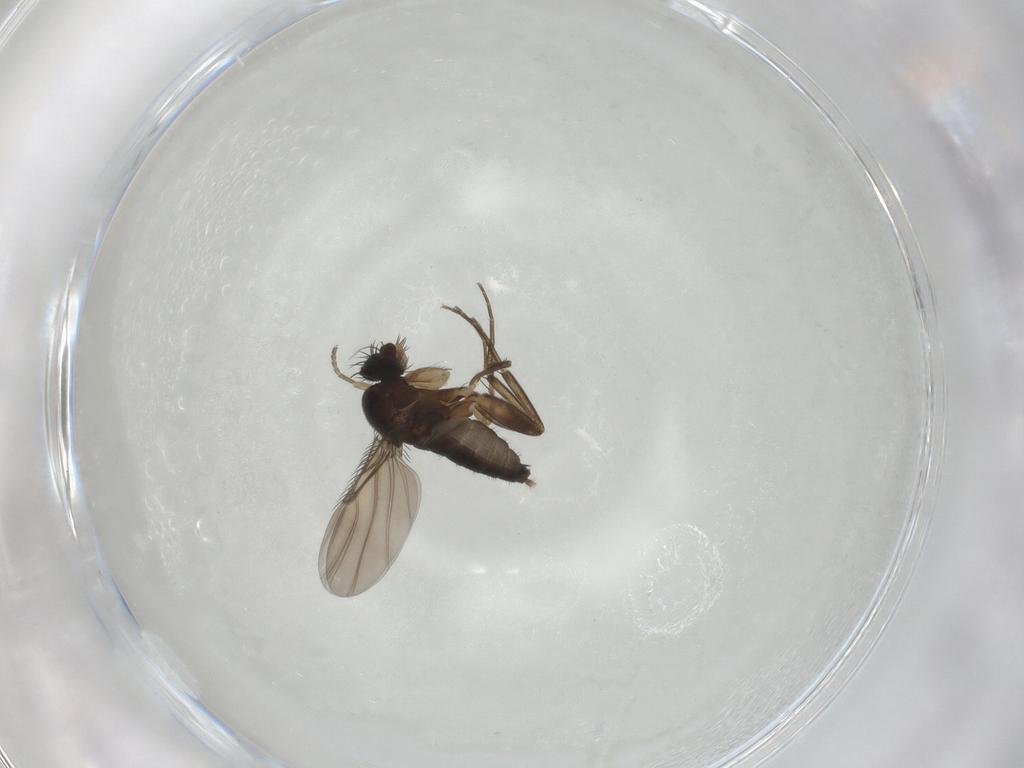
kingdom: Animalia
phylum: Arthropoda
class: Insecta
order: Diptera
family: Phoridae
